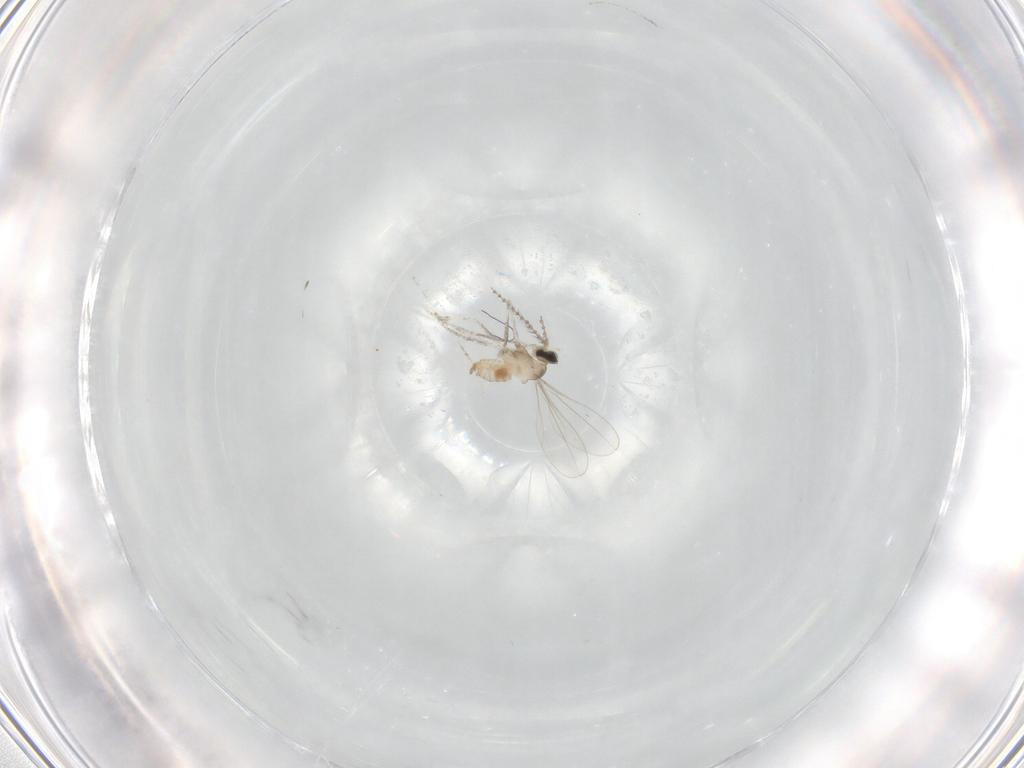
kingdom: Animalia
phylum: Arthropoda
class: Insecta
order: Diptera
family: Cecidomyiidae
